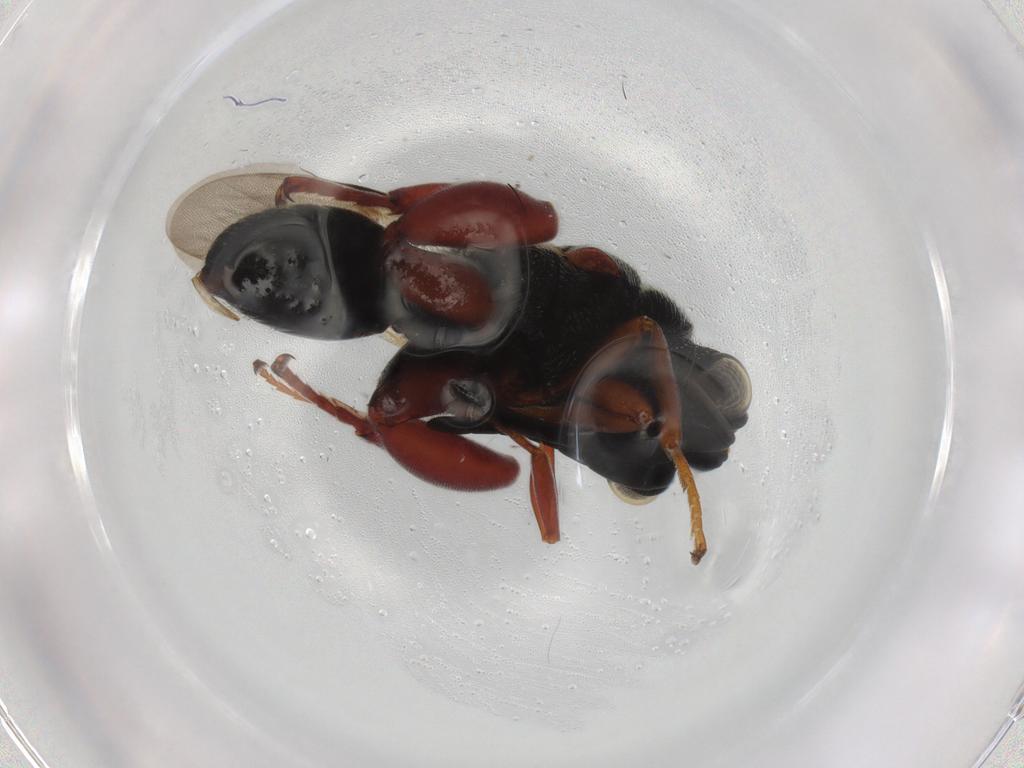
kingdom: Animalia
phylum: Arthropoda
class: Insecta
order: Hymenoptera
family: Chalcididae
